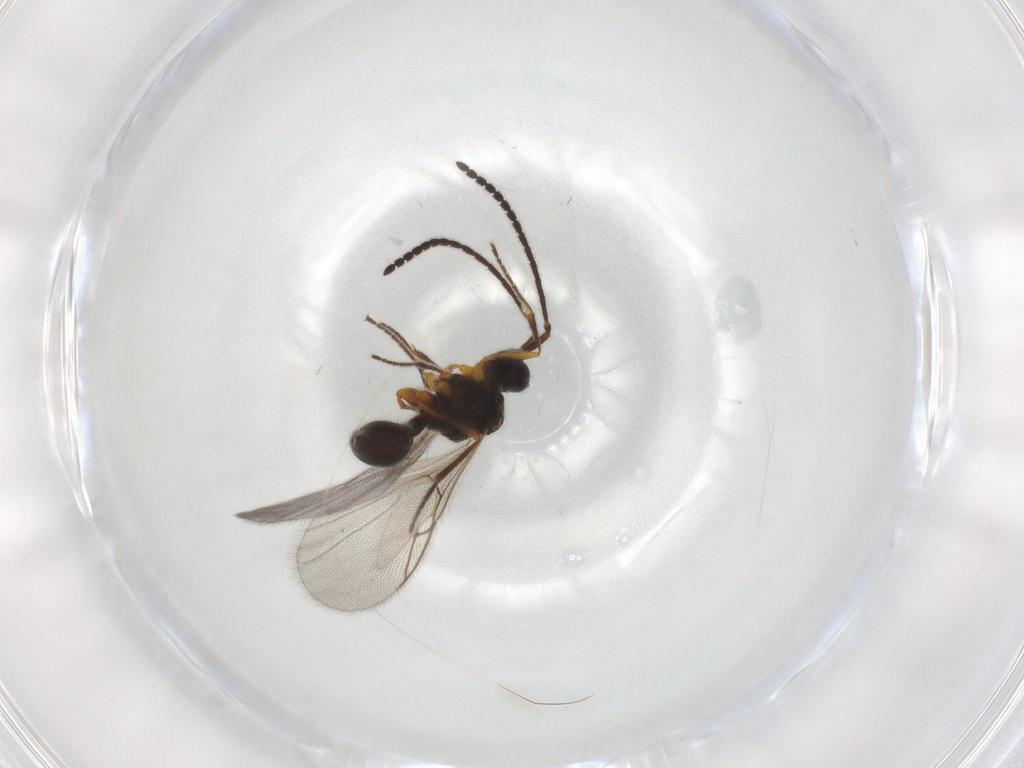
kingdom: Animalia
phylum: Arthropoda
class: Insecta
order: Hymenoptera
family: Diapriidae
